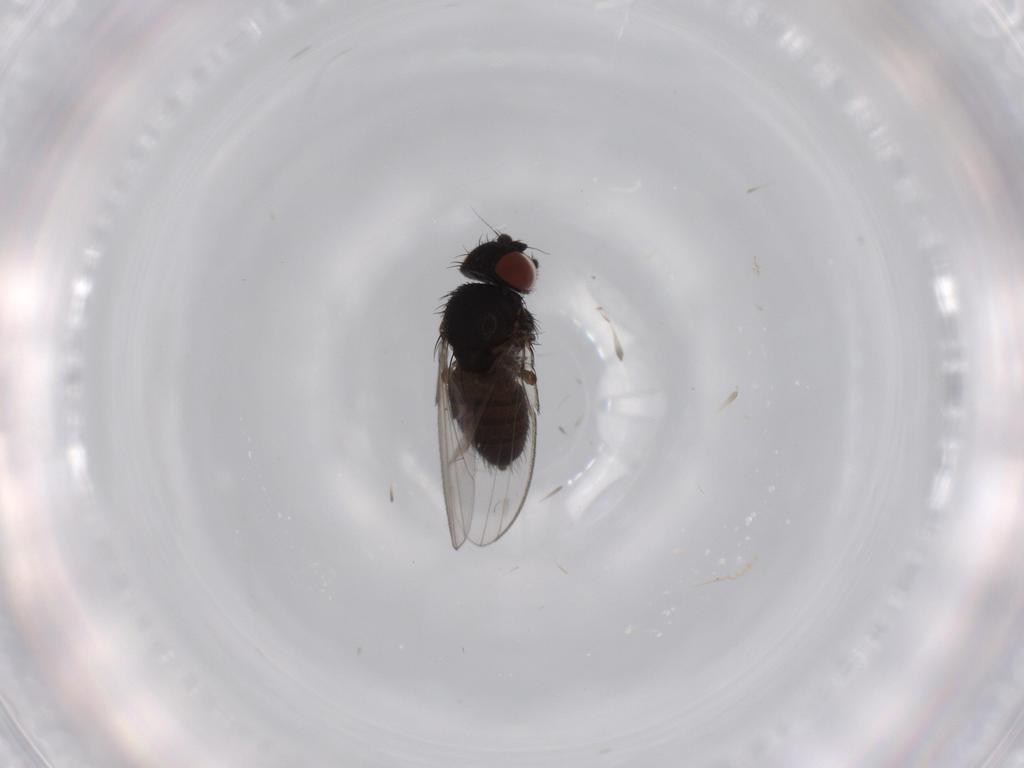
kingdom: Animalia
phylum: Arthropoda
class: Insecta
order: Diptera
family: Milichiidae
